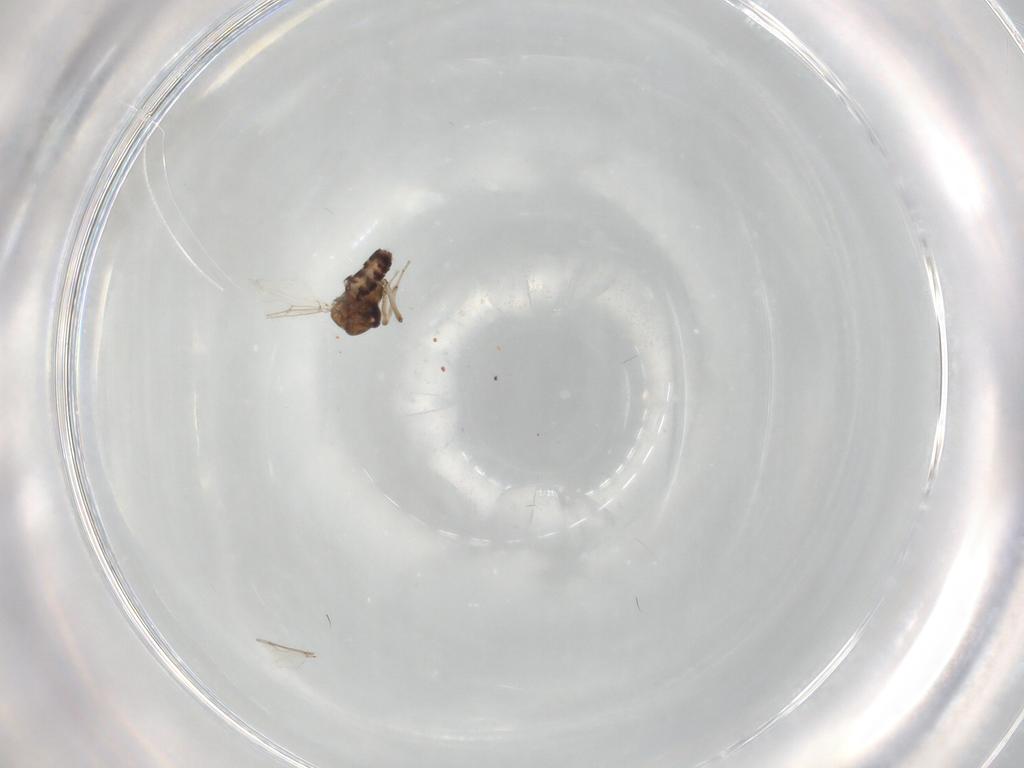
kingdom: Animalia
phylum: Arthropoda
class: Insecta
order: Diptera
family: Ceratopogonidae
